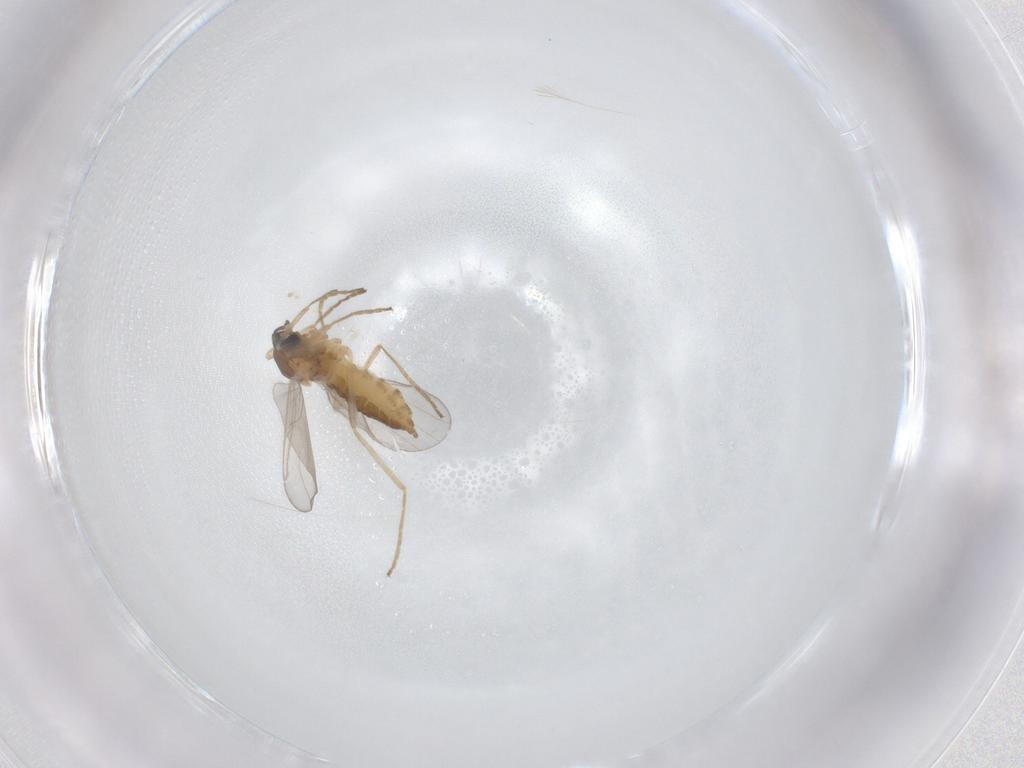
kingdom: Animalia
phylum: Arthropoda
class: Insecta
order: Diptera
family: Cecidomyiidae
